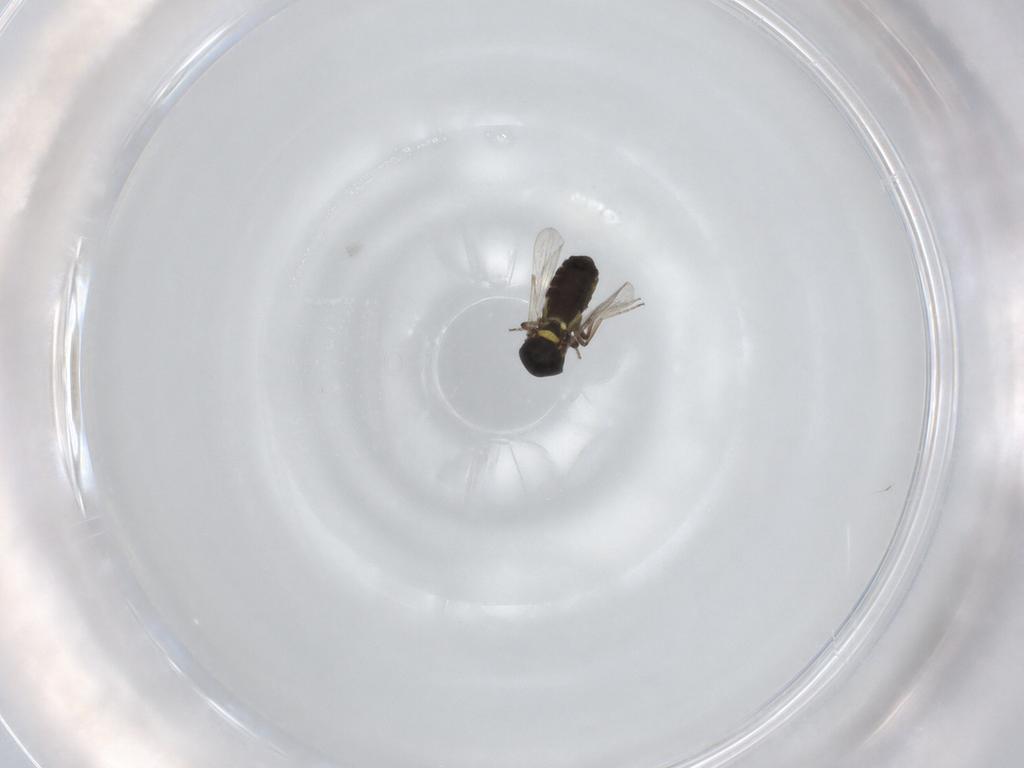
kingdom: Animalia
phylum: Arthropoda
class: Insecta
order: Diptera
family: Ceratopogonidae
